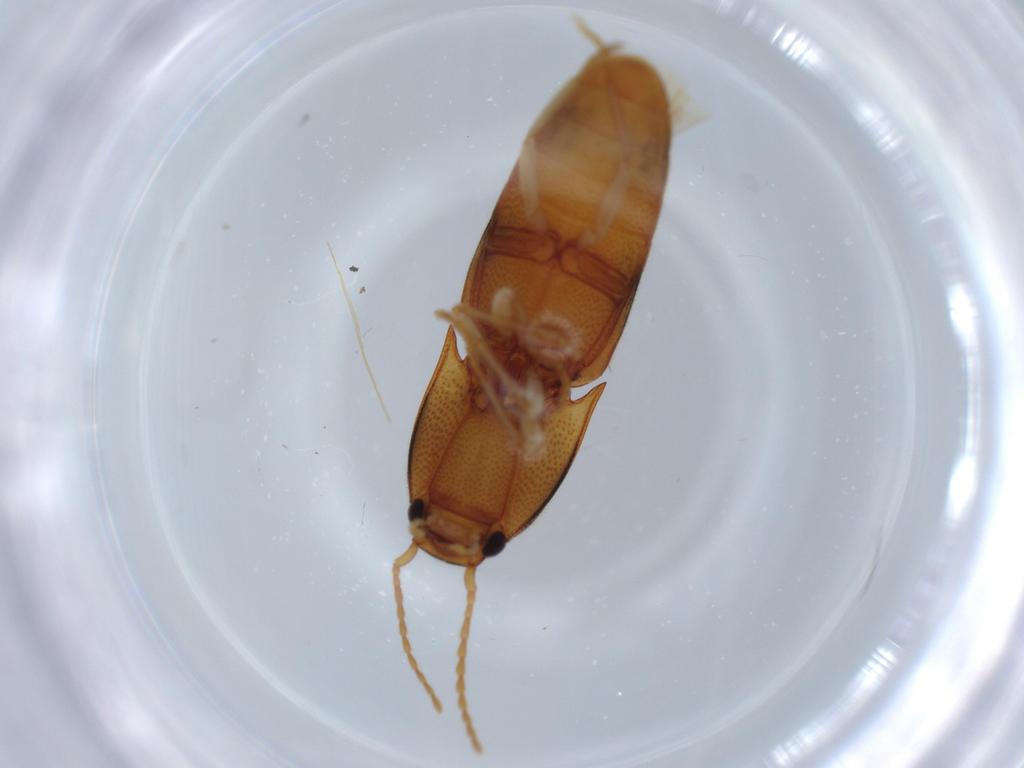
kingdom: Animalia
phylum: Arthropoda
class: Insecta
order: Coleoptera
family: Elateridae
